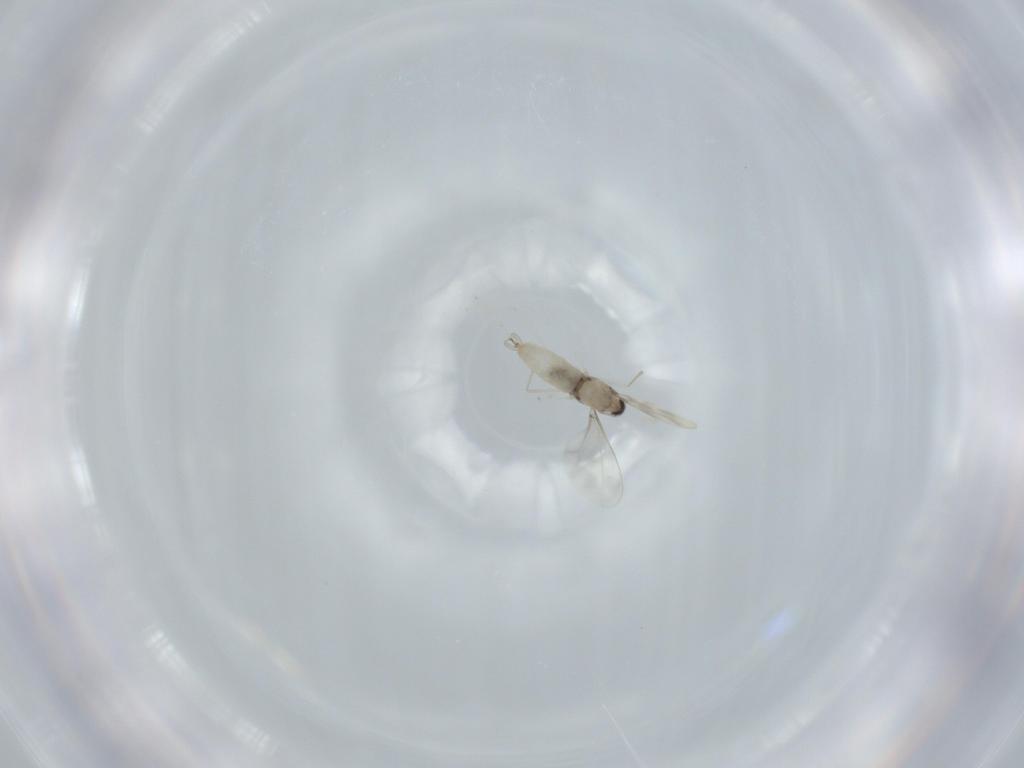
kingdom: Animalia
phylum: Arthropoda
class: Insecta
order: Diptera
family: Cecidomyiidae
